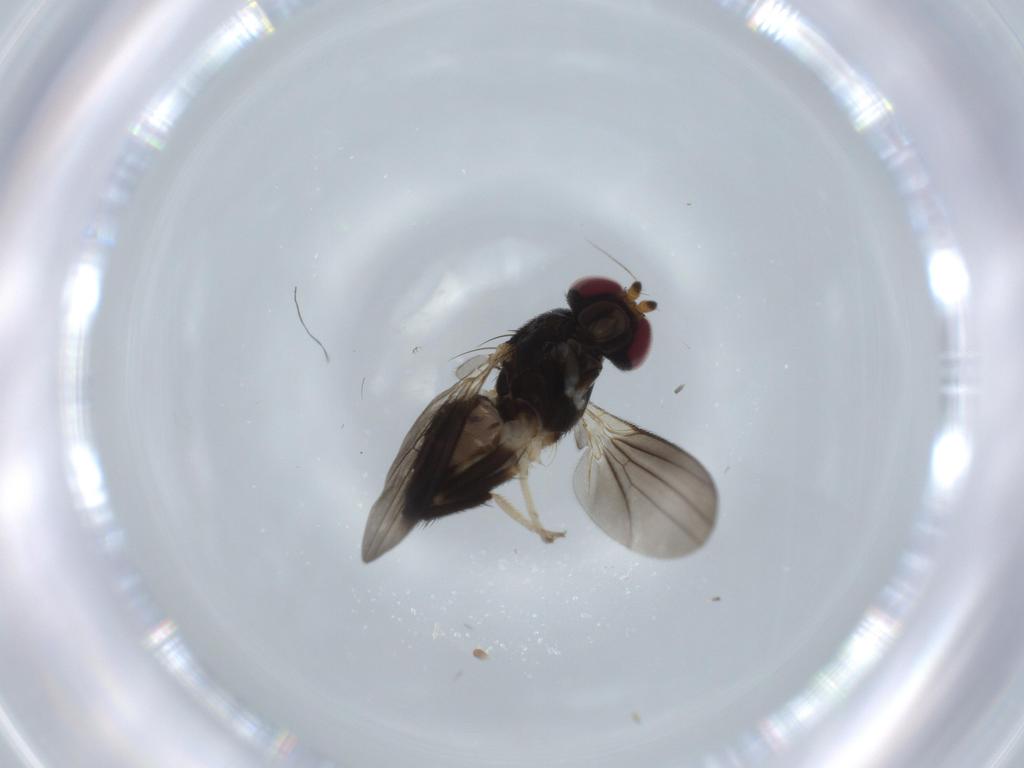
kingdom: Animalia
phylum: Arthropoda
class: Insecta
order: Diptera
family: Clusiidae
